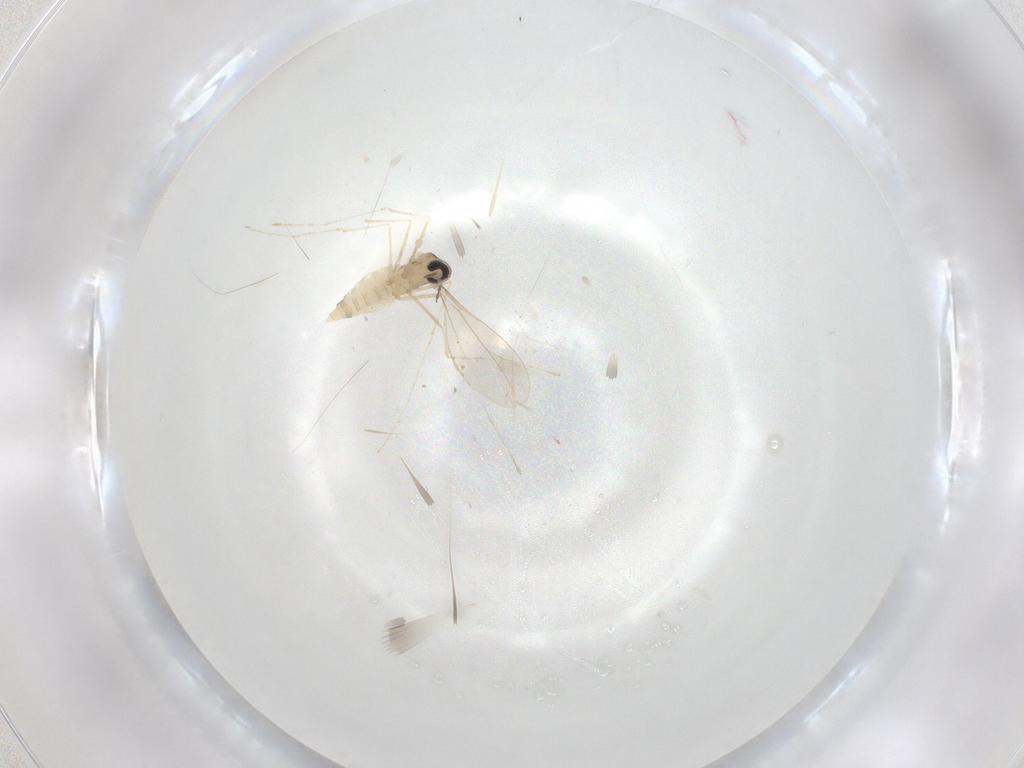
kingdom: Animalia
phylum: Arthropoda
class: Insecta
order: Diptera
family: Cecidomyiidae
